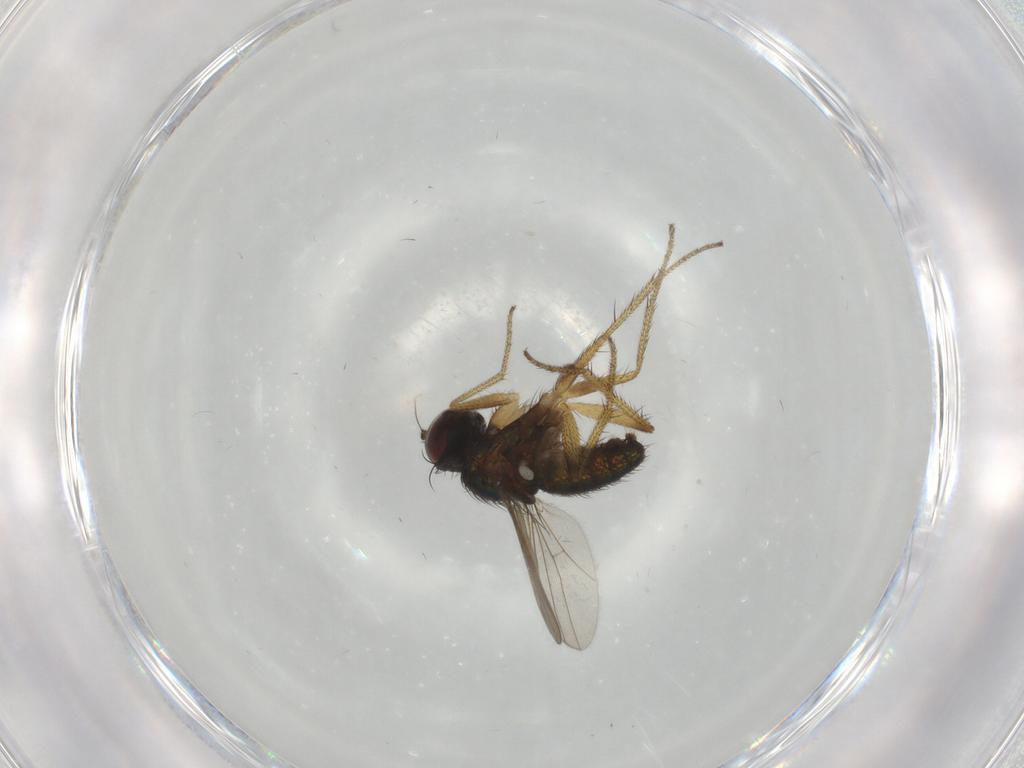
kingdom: Animalia
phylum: Arthropoda
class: Insecta
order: Diptera
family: Dolichopodidae
